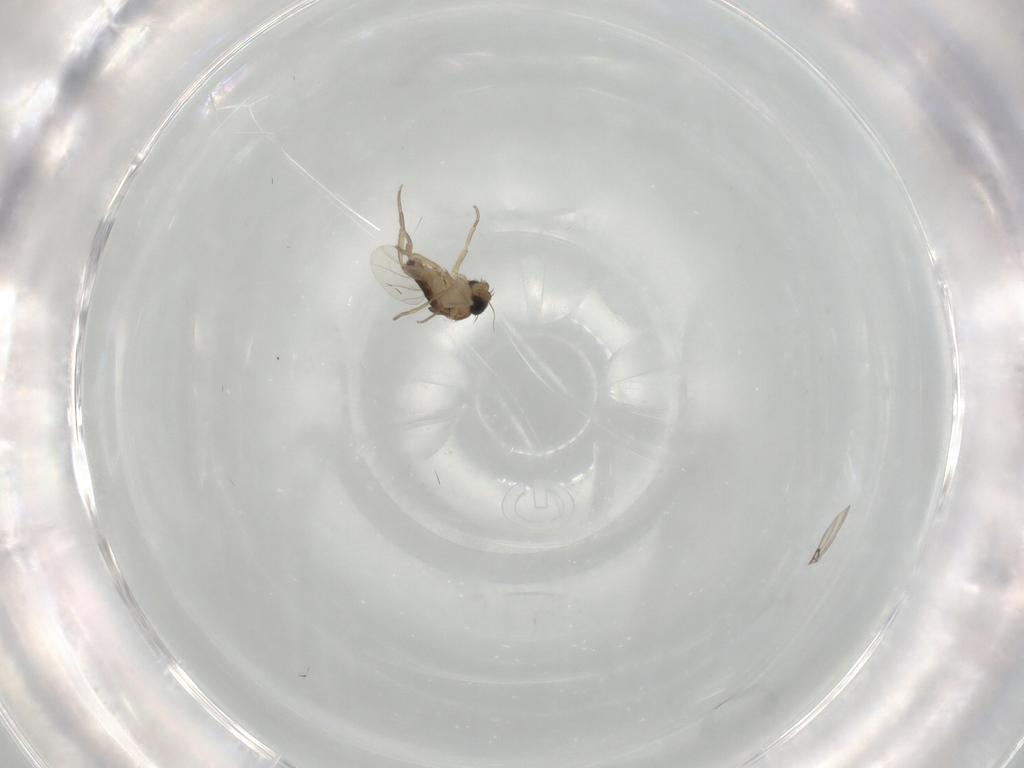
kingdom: Animalia
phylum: Arthropoda
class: Insecta
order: Diptera
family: Phoridae
